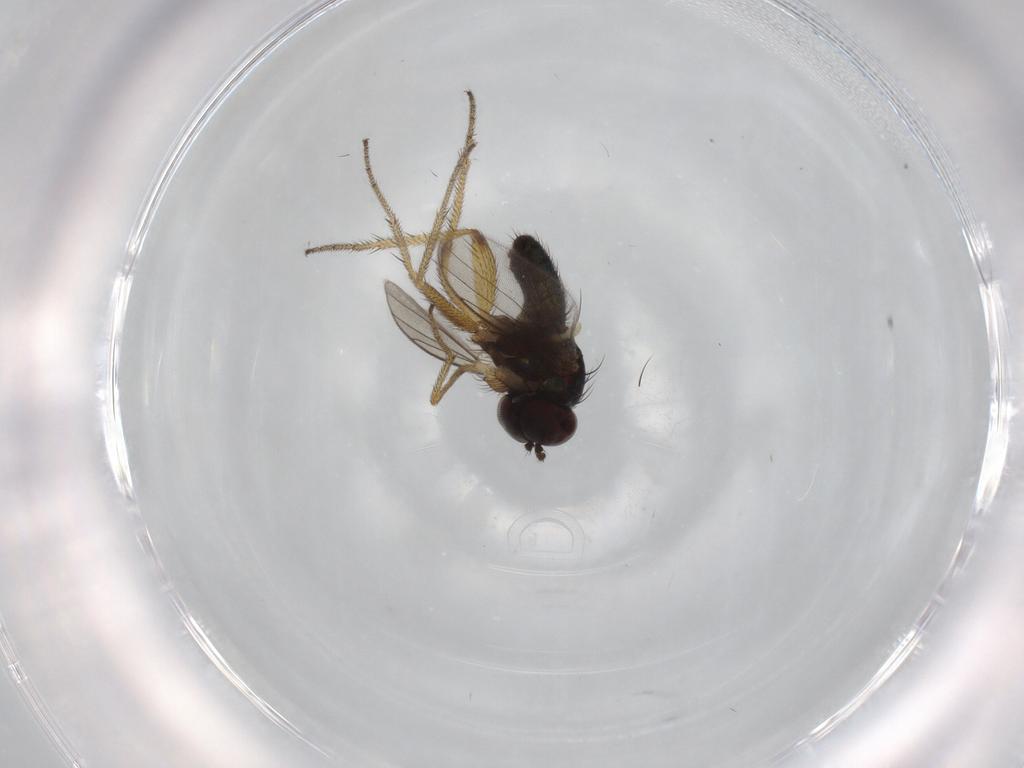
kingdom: Animalia
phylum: Arthropoda
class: Insecta
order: Diptera
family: Dolichopodidae
